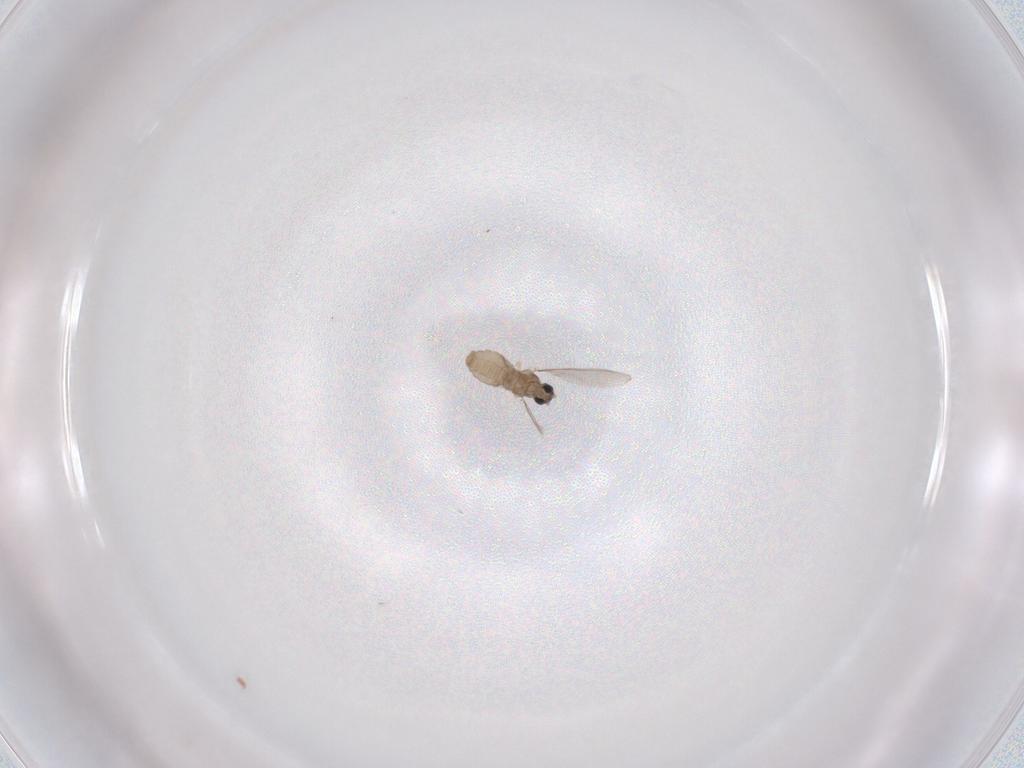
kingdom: Animalia
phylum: Arthropoda
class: Insecta
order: Diptera
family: Cecidomyiidae
